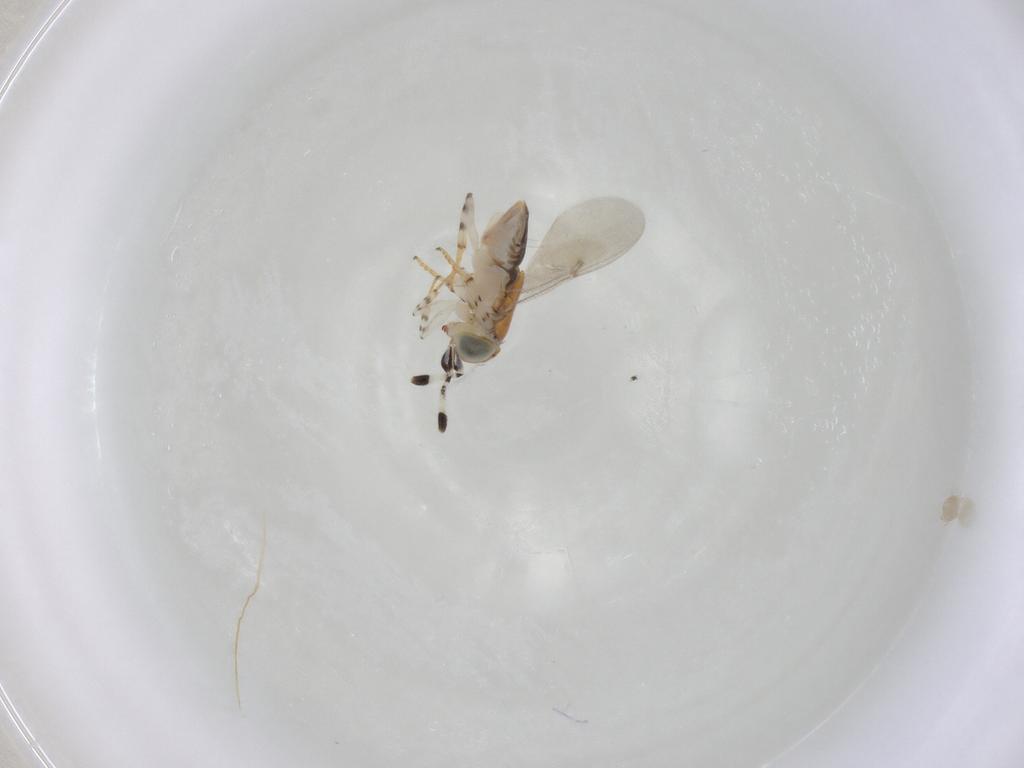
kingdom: Animalia
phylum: Arthropoda
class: Insecta
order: Hymenoptera
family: Encyrtidae
